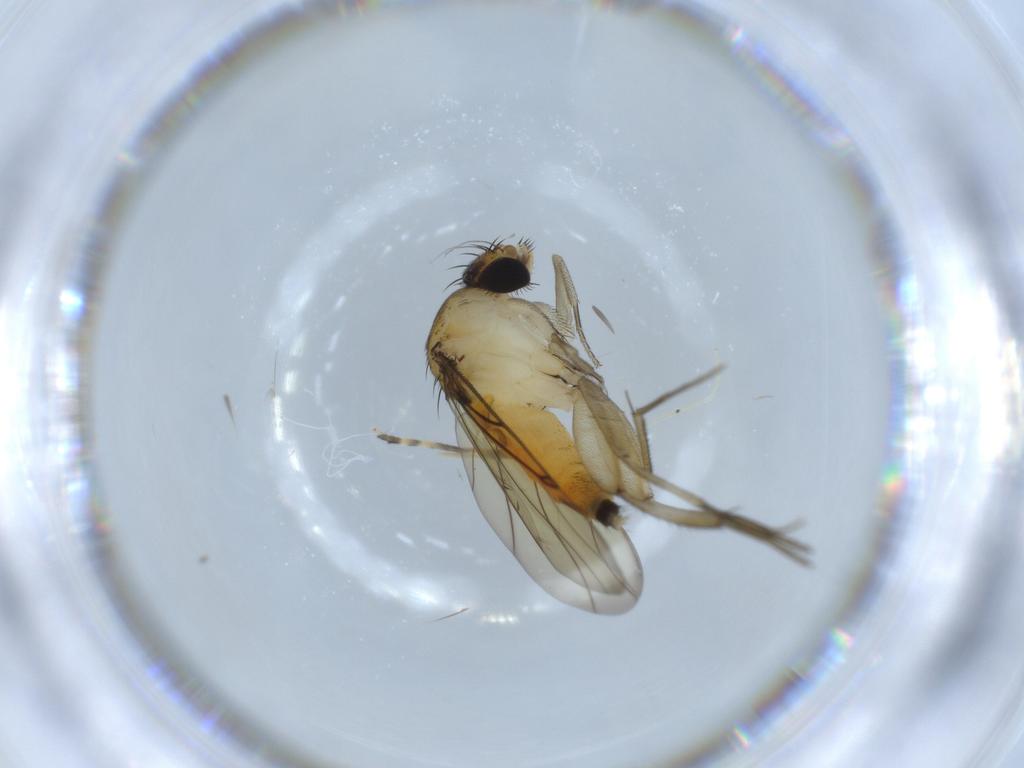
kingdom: Animalia
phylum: Arthropoda
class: Insecta
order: Diptera
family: Chironomidae
